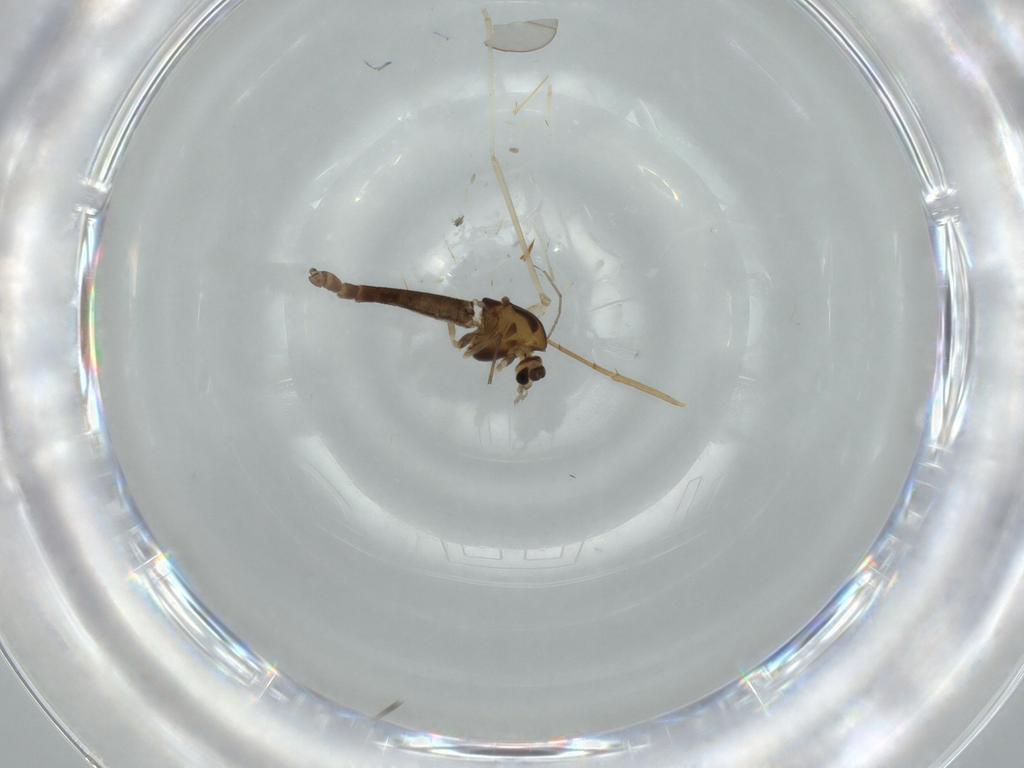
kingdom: Animalia
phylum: Arthropoda
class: Insecta
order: Diptera
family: Chironomidae
